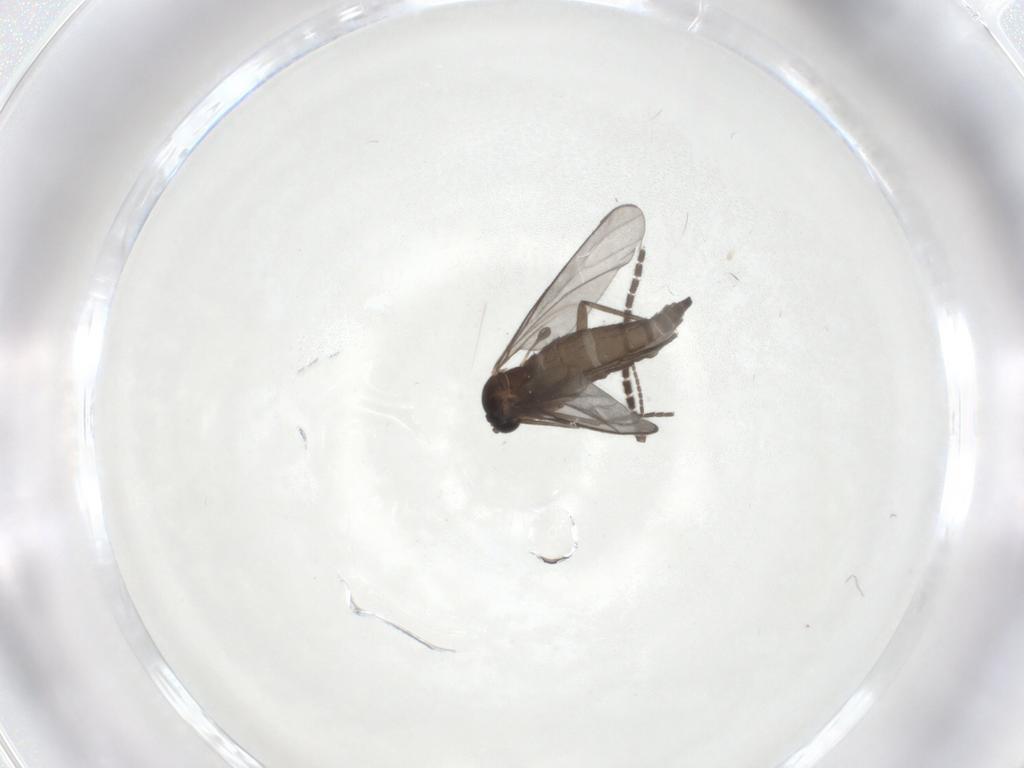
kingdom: Animalia
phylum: Arthropoda
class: Insecta
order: Diptera
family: Sciaridae
